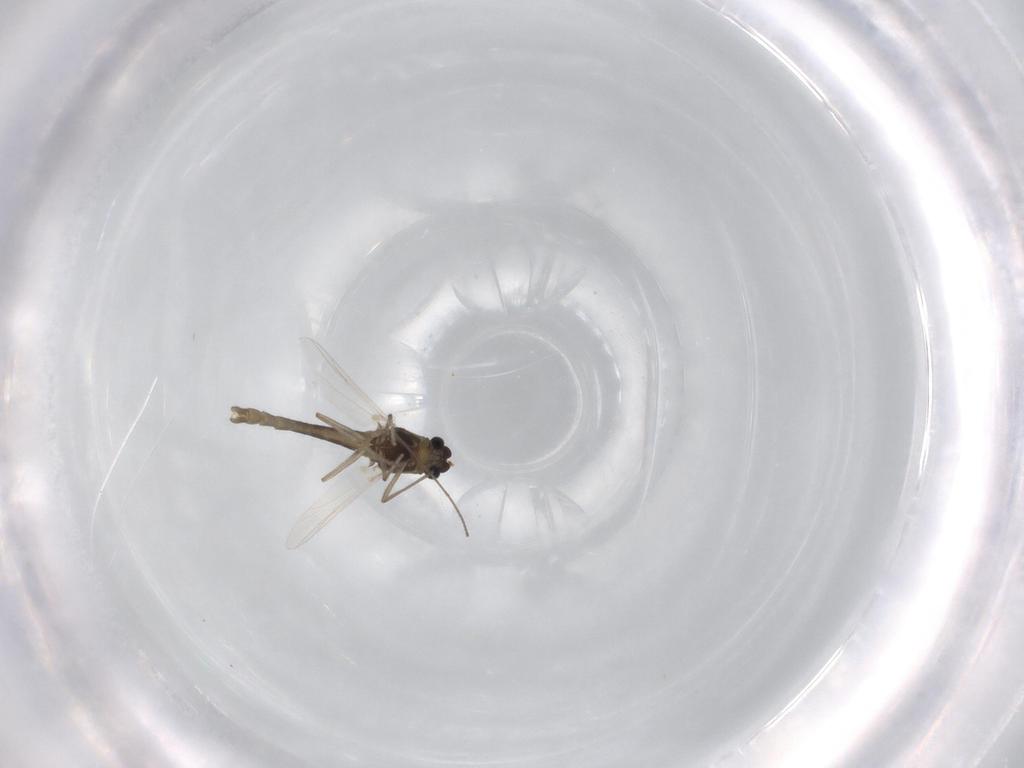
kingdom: Animalia
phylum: Arthropoda
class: Insecta
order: Diptera
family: Chironomidae
